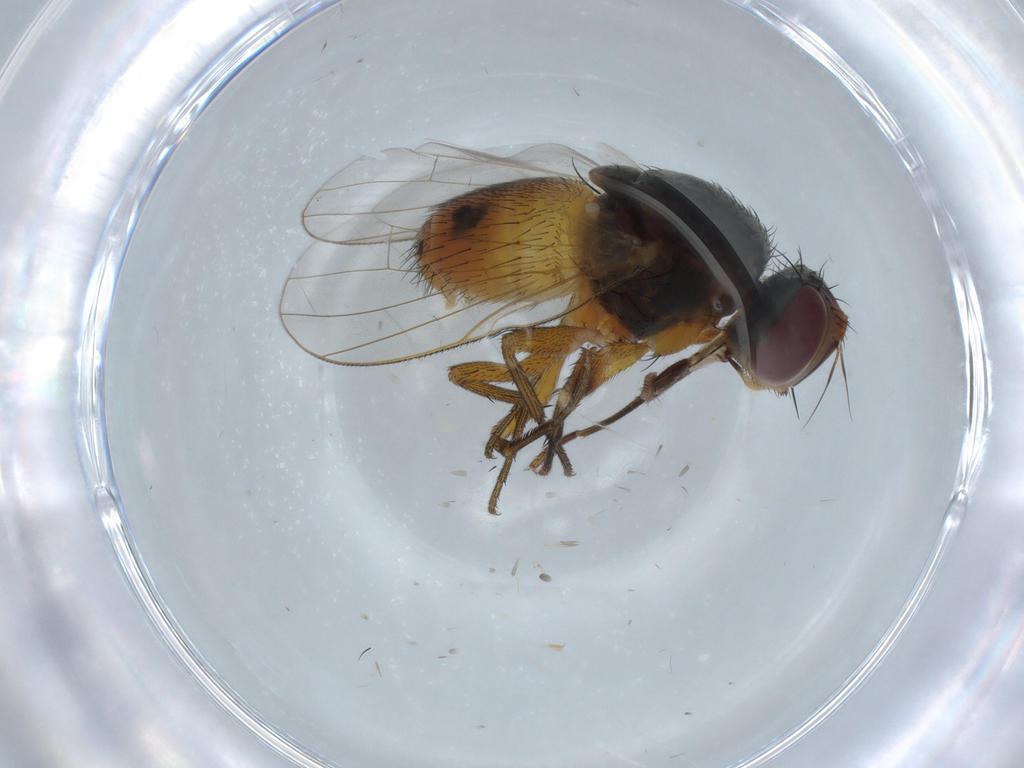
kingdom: Animalia
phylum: Arthropoda
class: Insecta
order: Diptera
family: Muscidae
